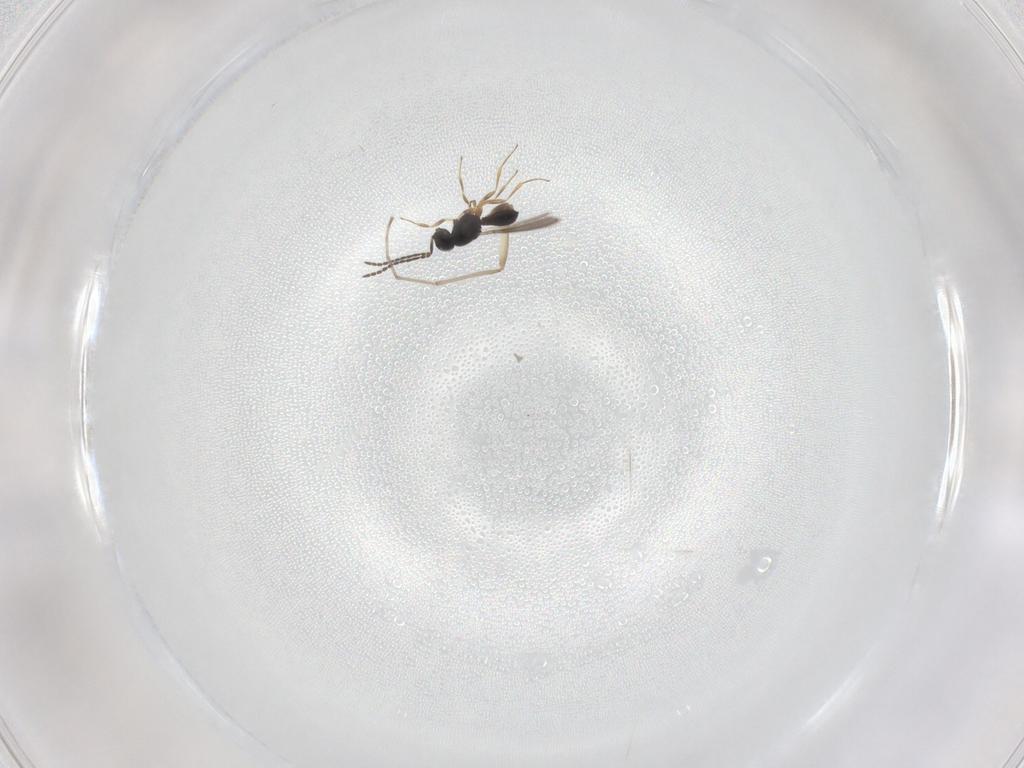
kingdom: Animalia
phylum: Arthropoda
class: Insecta
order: Hymenoptera
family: Scelionidae
